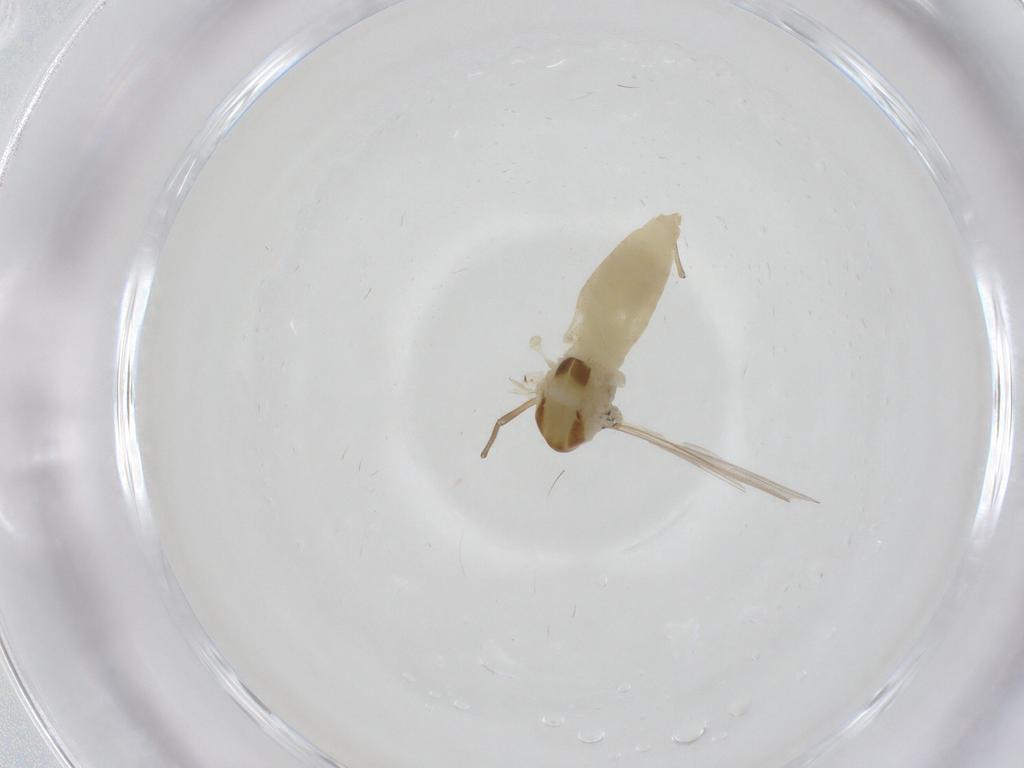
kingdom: Animalia
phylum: Arthropoda
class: Insecta
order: Diptera
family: Chironomidae
